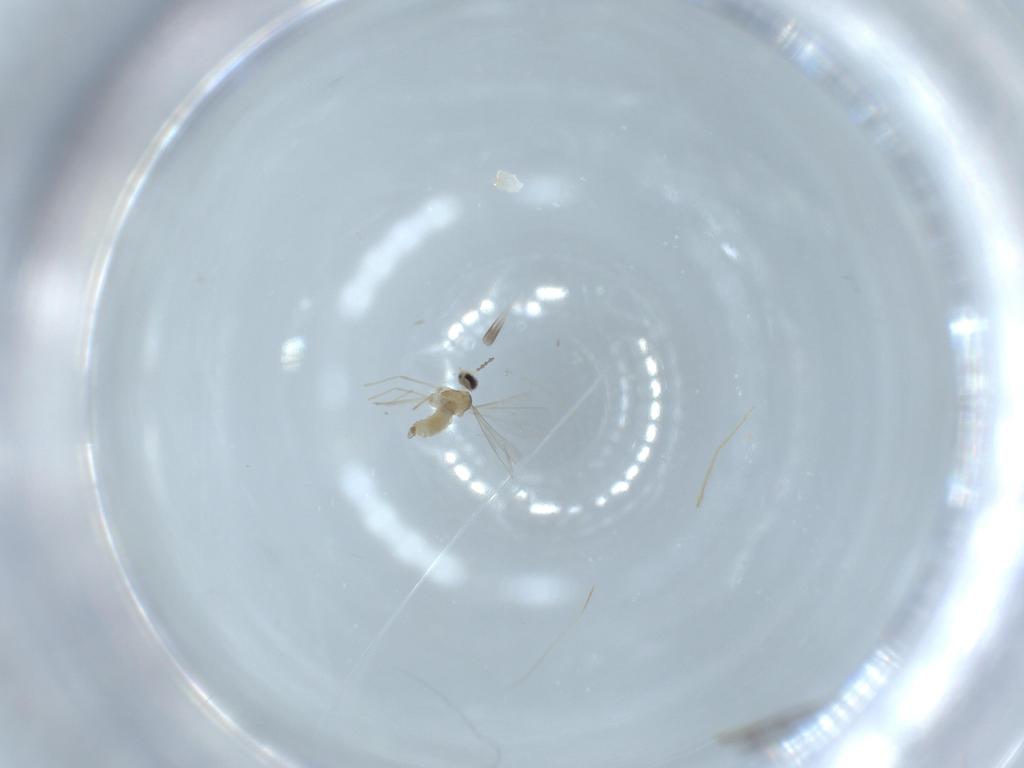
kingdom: Animalia
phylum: Arthropoda
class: Insecta
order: Diptera
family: Cecidomyiidae
